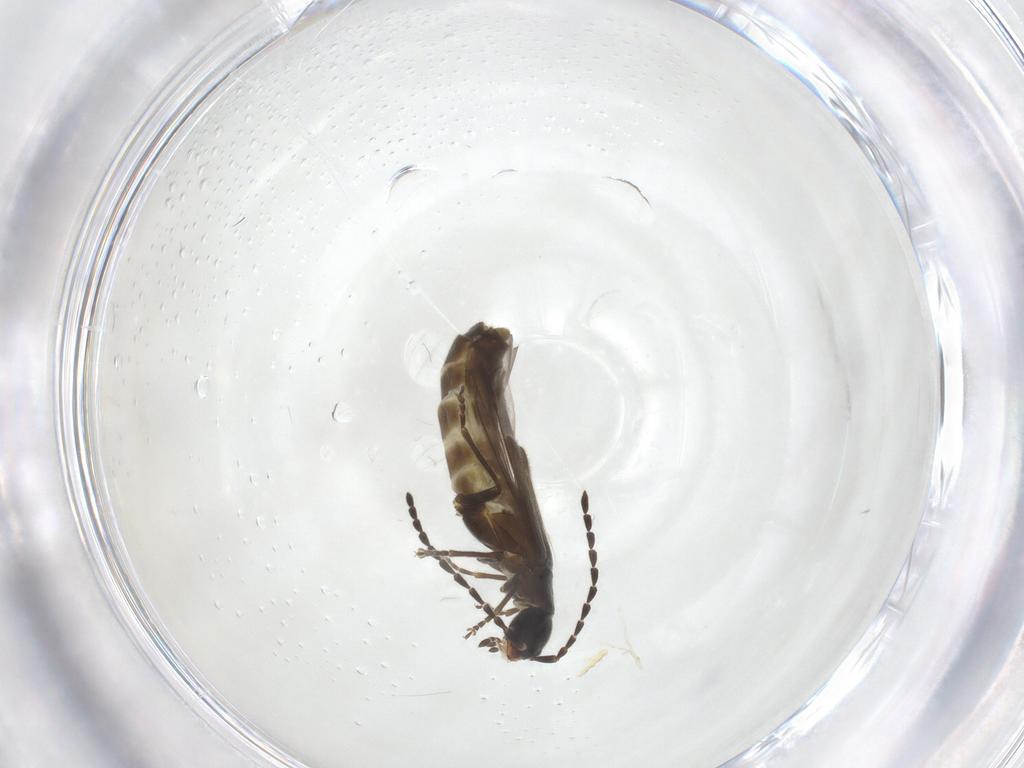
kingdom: Animalia
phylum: Arthropoda
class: Insecta
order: Coleoptera
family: Cantharidae
